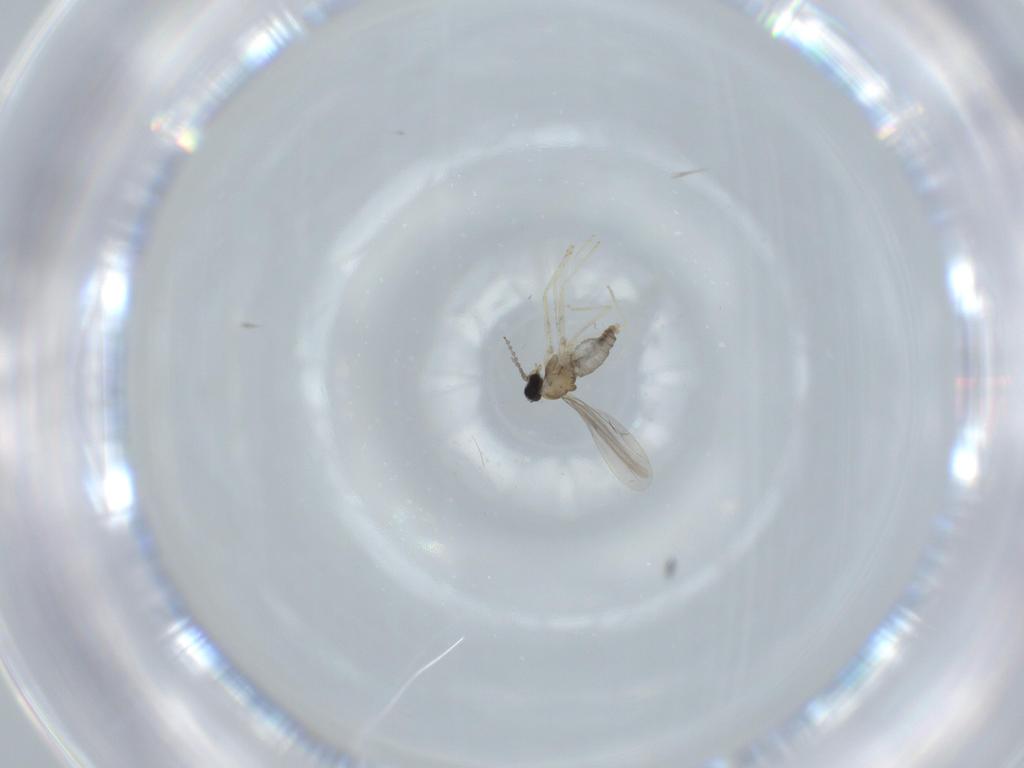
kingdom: Animalia
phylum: Arthropoda
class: Insecta
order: Diptera
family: Cecidomyiidae
